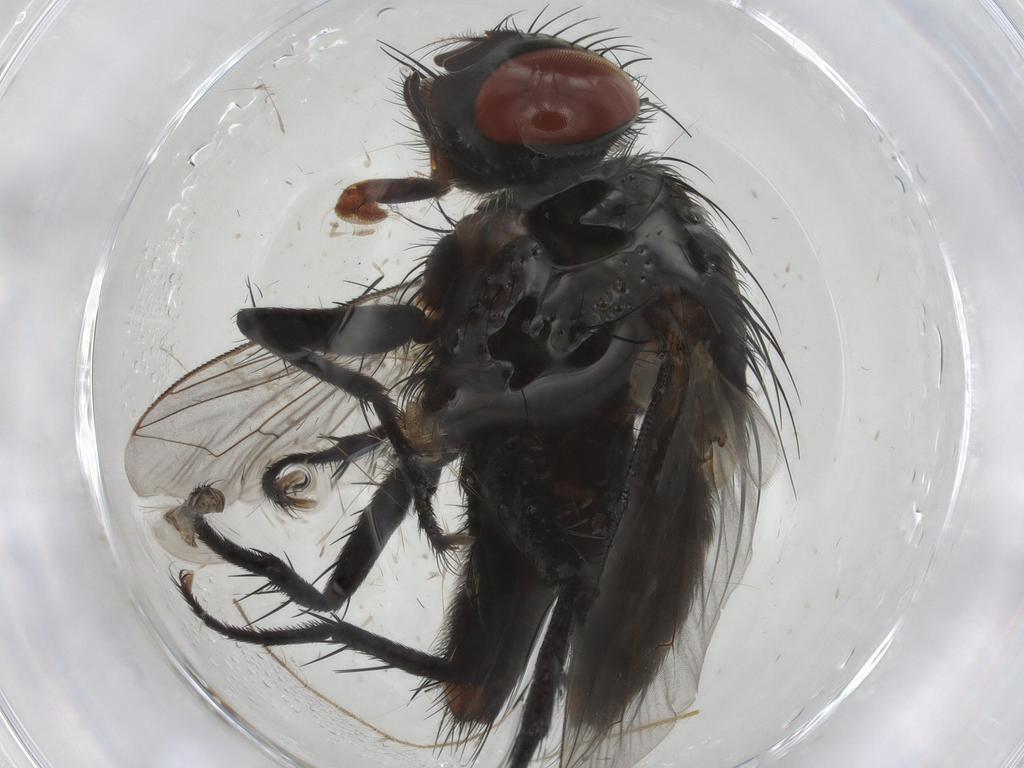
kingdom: Animalia
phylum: Arthropoda
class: Insecta
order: Diptera
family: Sarcophagidae
